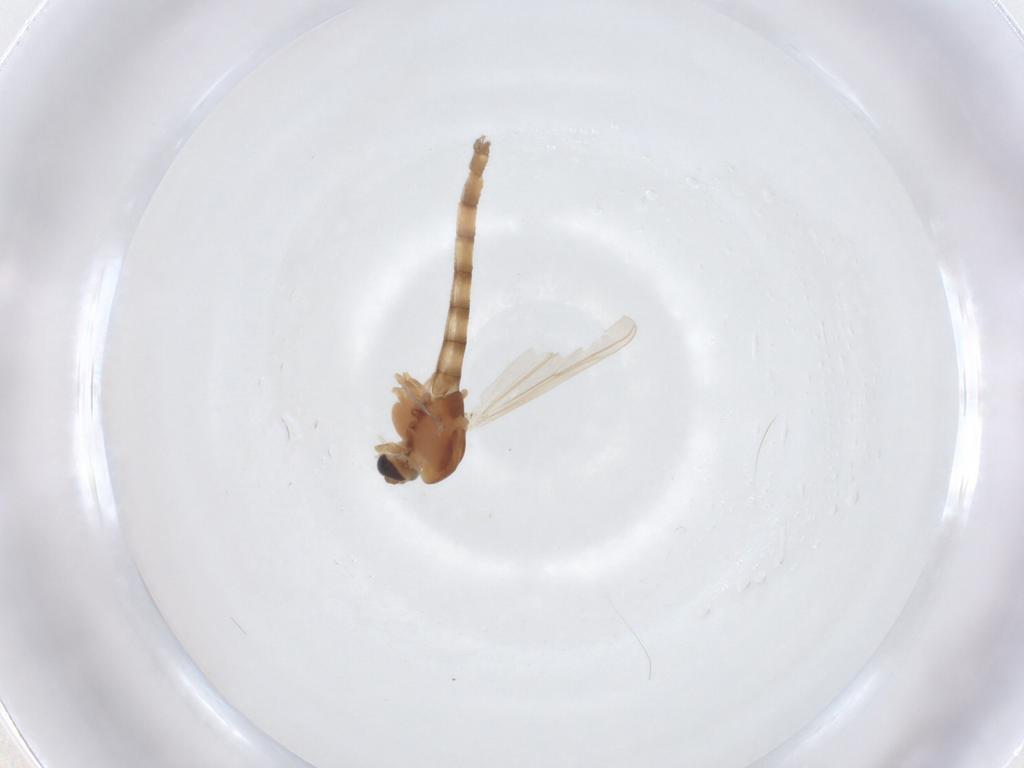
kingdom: Animalia
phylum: Arthropoda
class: Insecta
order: Diptera
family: Chironomidae
